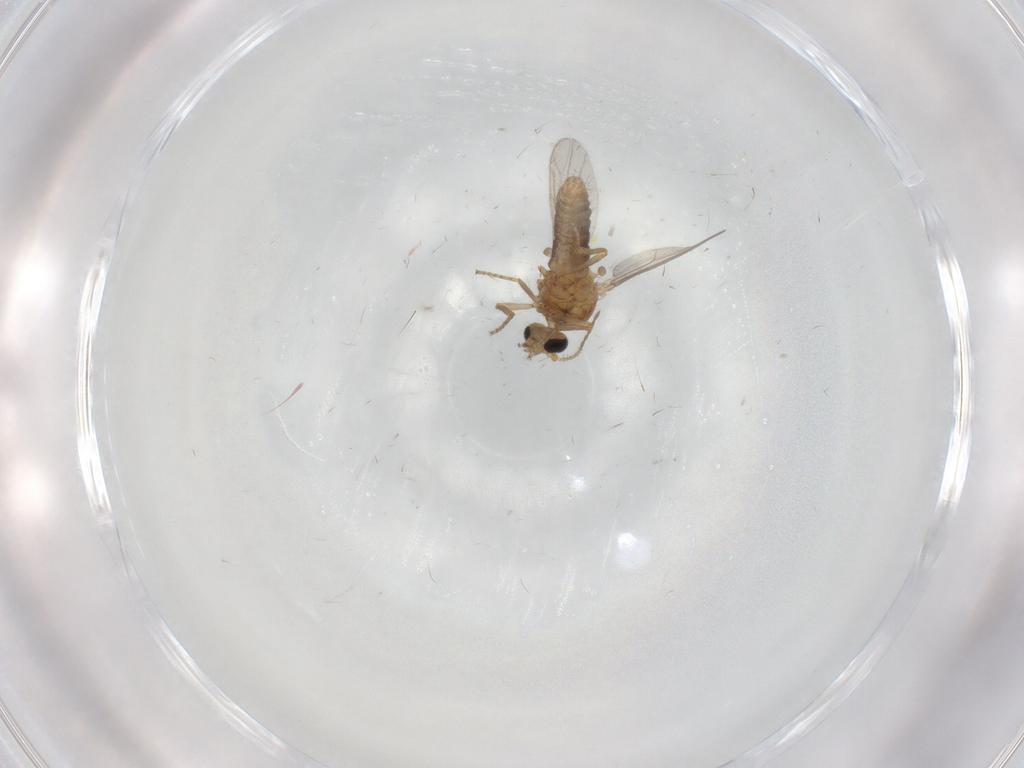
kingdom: Animalia
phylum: Arthropoda
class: Insecta
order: Diptera
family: Ceratopogonidae
